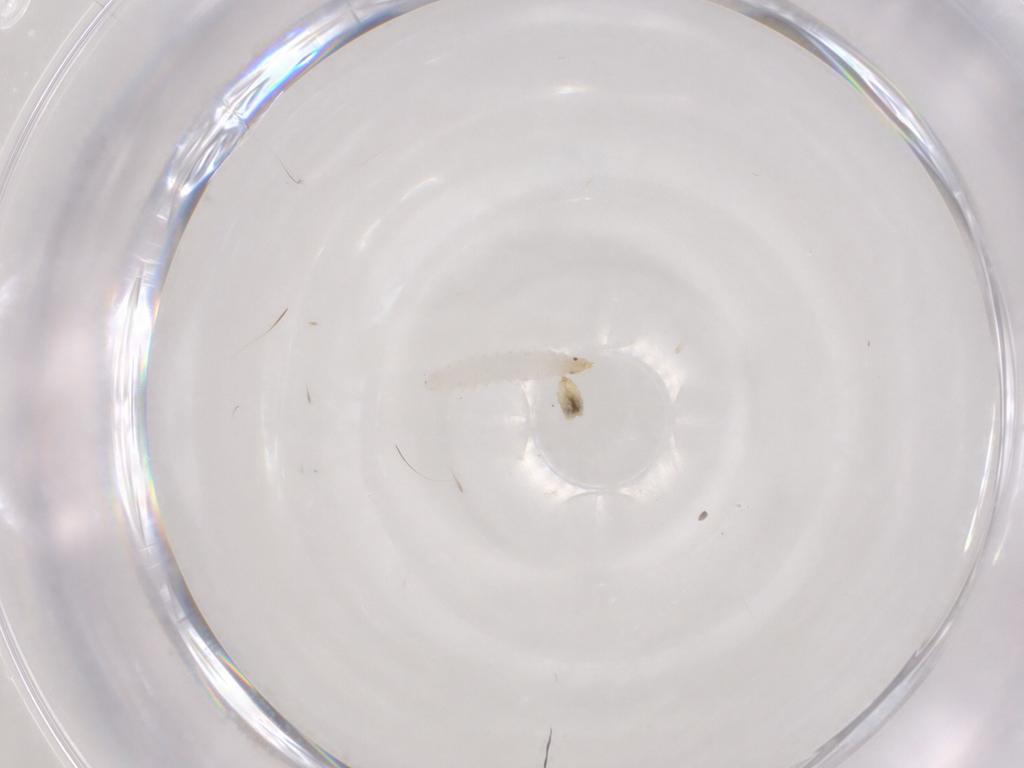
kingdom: Animalia
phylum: Arthropoda
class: Insecta
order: Diptera
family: Stratiomyidae
